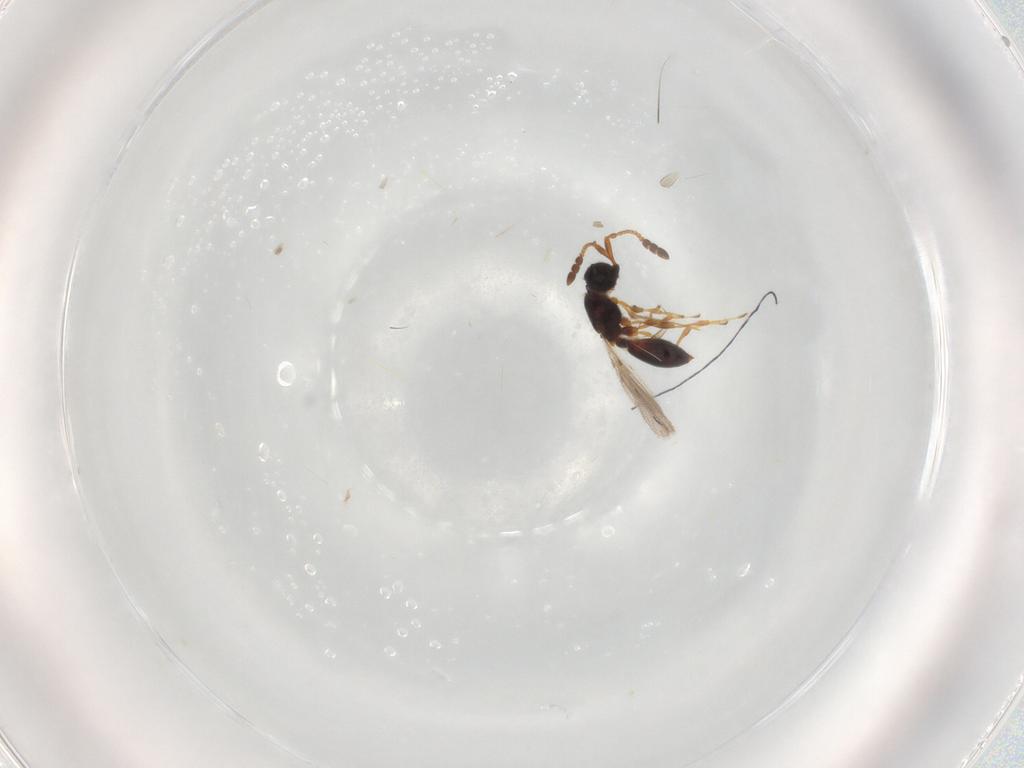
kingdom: Animalia
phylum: Arthropoda
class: Insecta
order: Hymenoptera
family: Diapriidae
